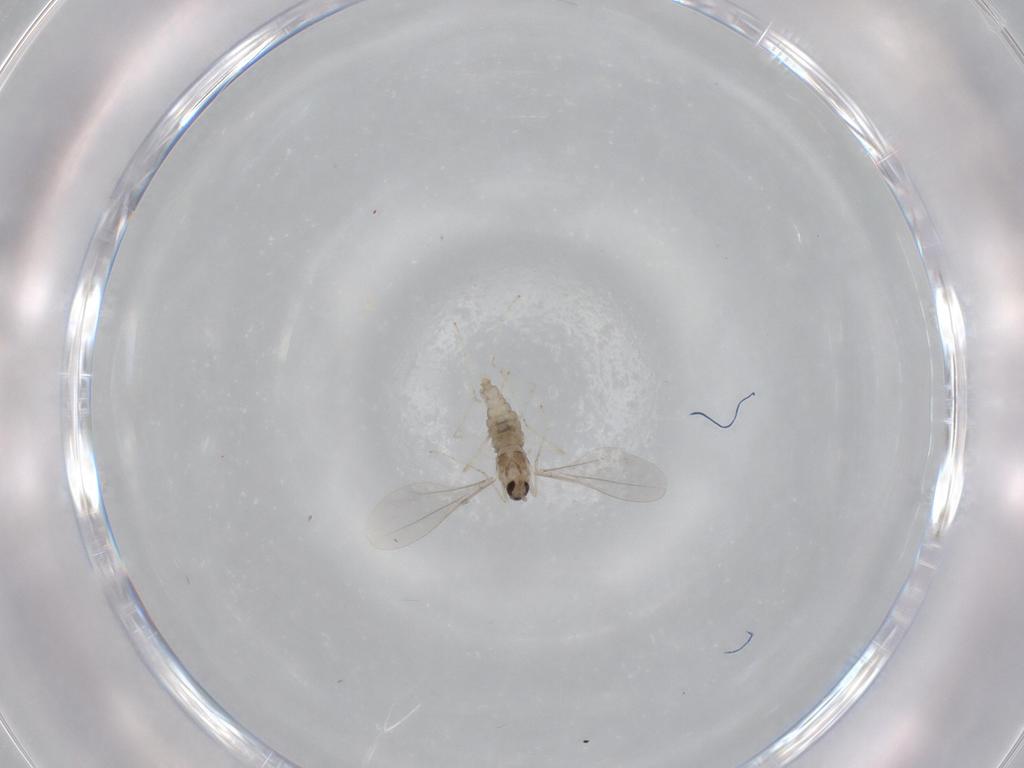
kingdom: Animalia
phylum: Arthropoda
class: Insecta
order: Diptera
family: Cecidomyiidae
